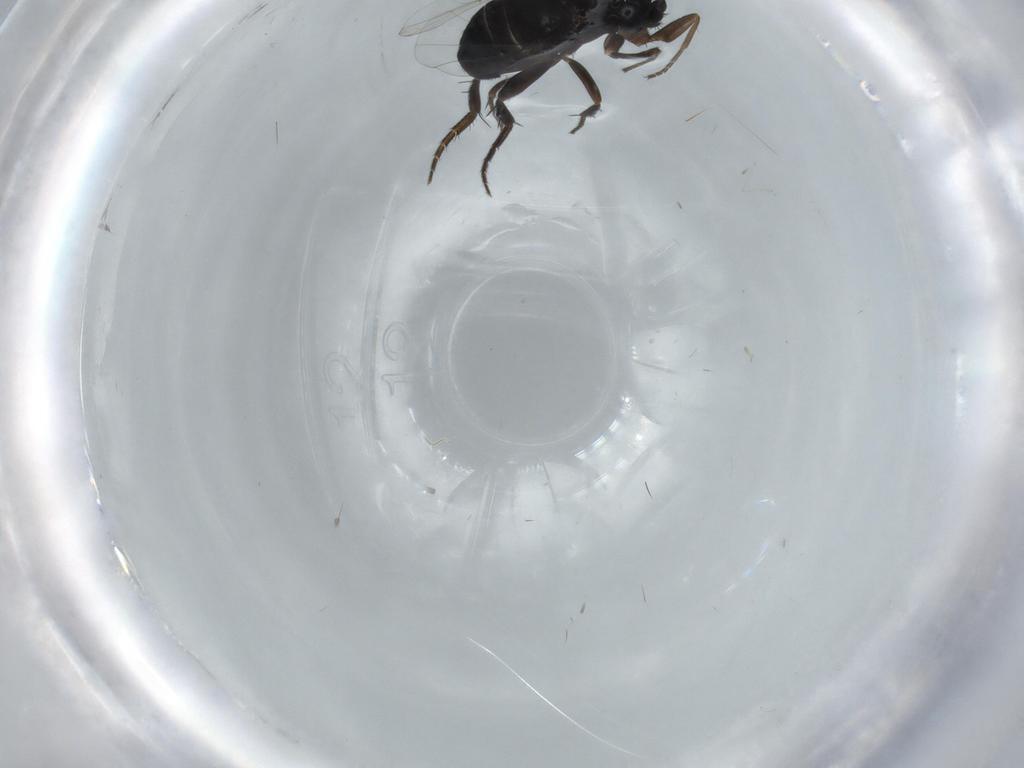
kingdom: Animalia
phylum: Arthropoda
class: Insecta
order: Diptera
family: Phoridae
